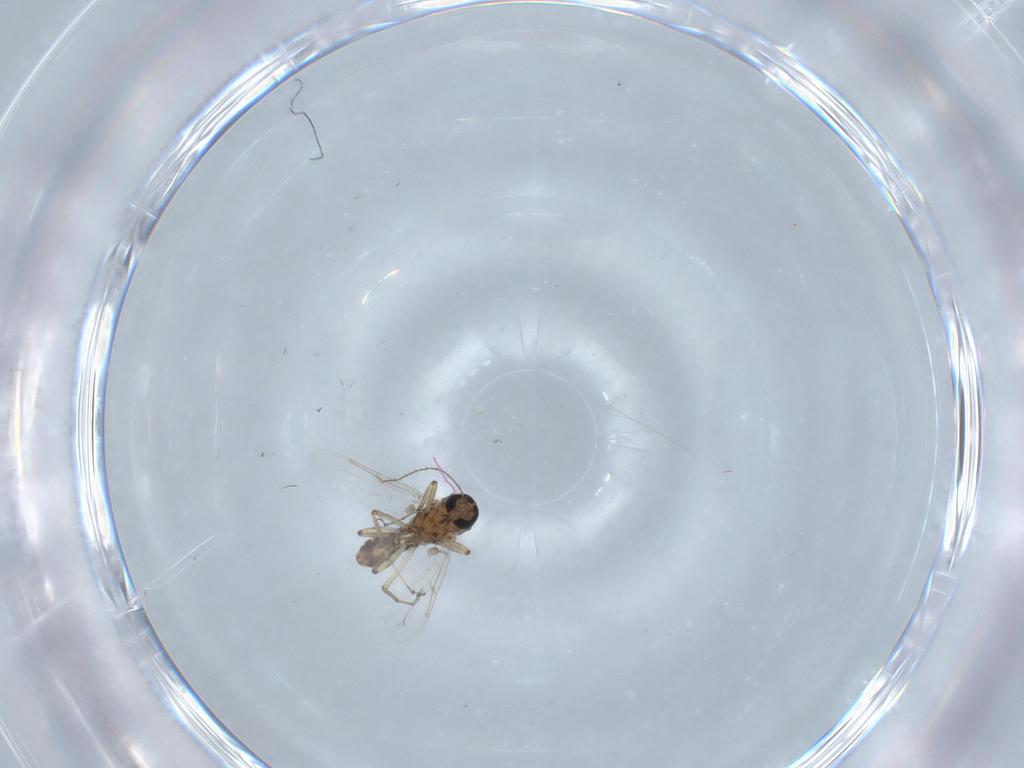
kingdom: Animalia
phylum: Arthropoda
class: Insecta
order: Diptera
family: Ceratopogonidae
